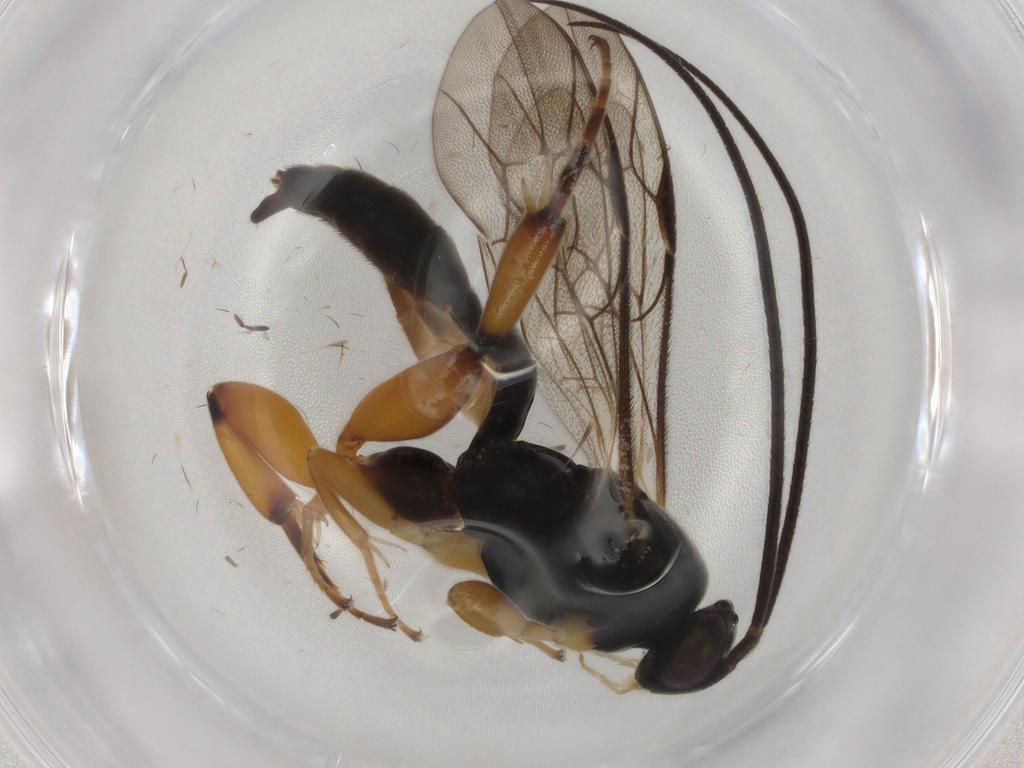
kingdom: Animalia
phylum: Arthropoda
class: Insecta
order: Hymenoptera
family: Ichneumonidae
